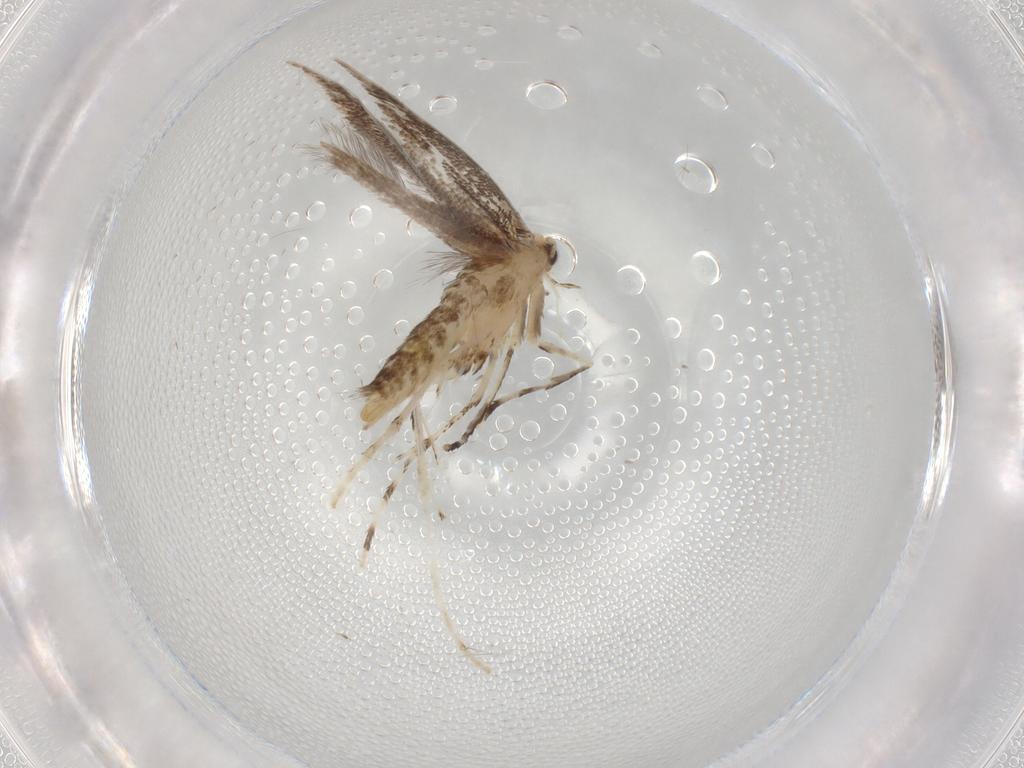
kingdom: Animalia
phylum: Arthropoda
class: Insecta
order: Lepidoptera
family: Gracillariidae
